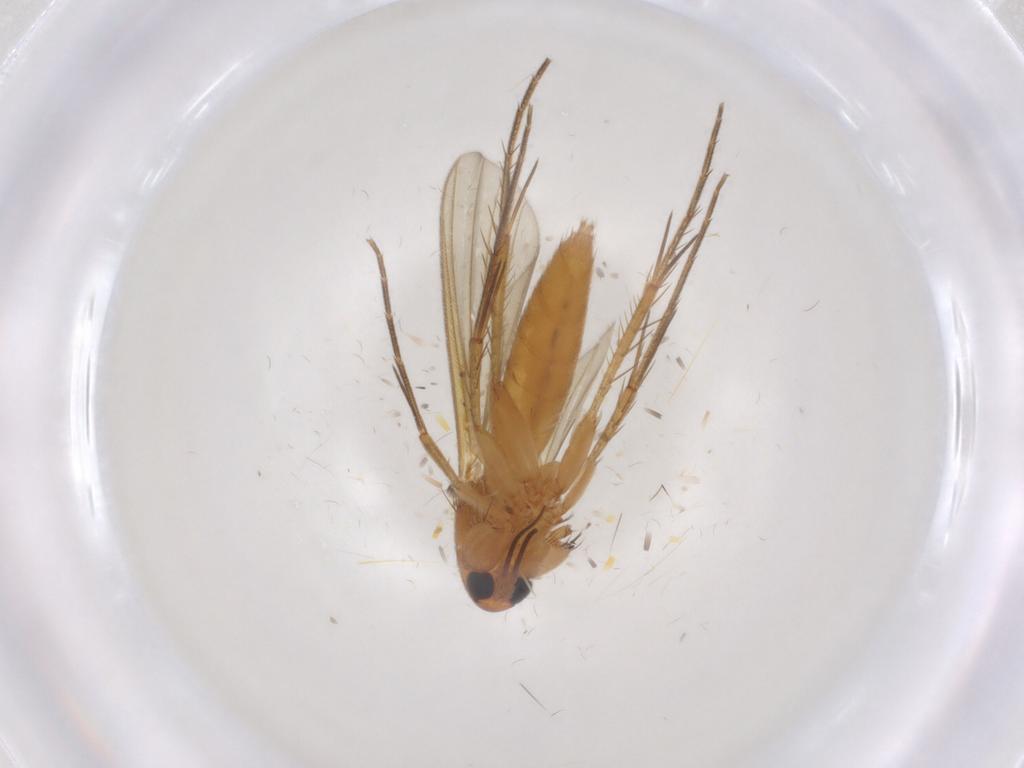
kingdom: Animalia
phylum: Arthropoda
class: Insecta
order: Diptera
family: Mycetophilidae
